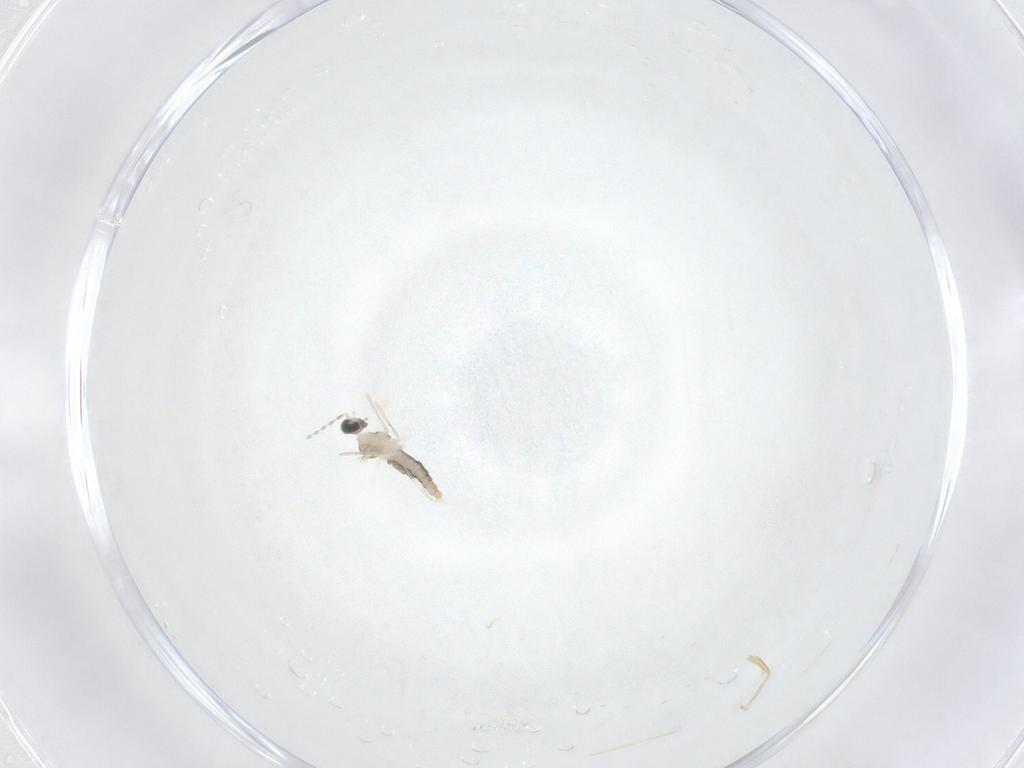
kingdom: Animalia
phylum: Arthropoda
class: Insecta
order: Diptera
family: Cecidomyiidae
